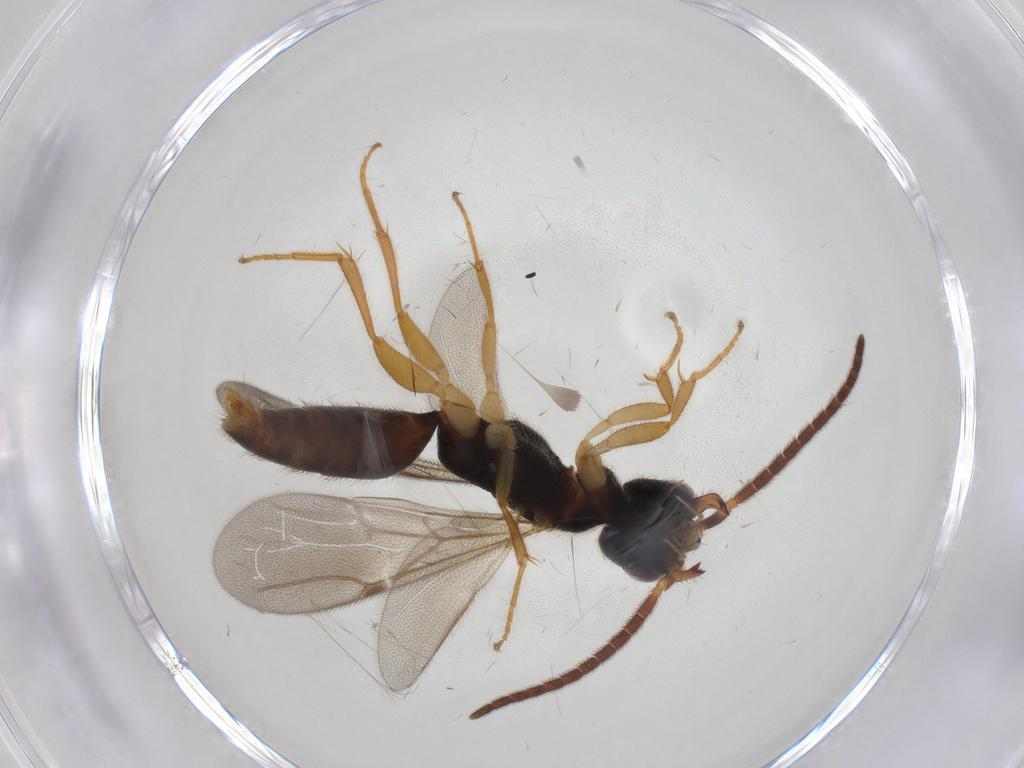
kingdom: Animalia
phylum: Arthropoda
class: Insecta
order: Hymenoptera
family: Bethylidae
